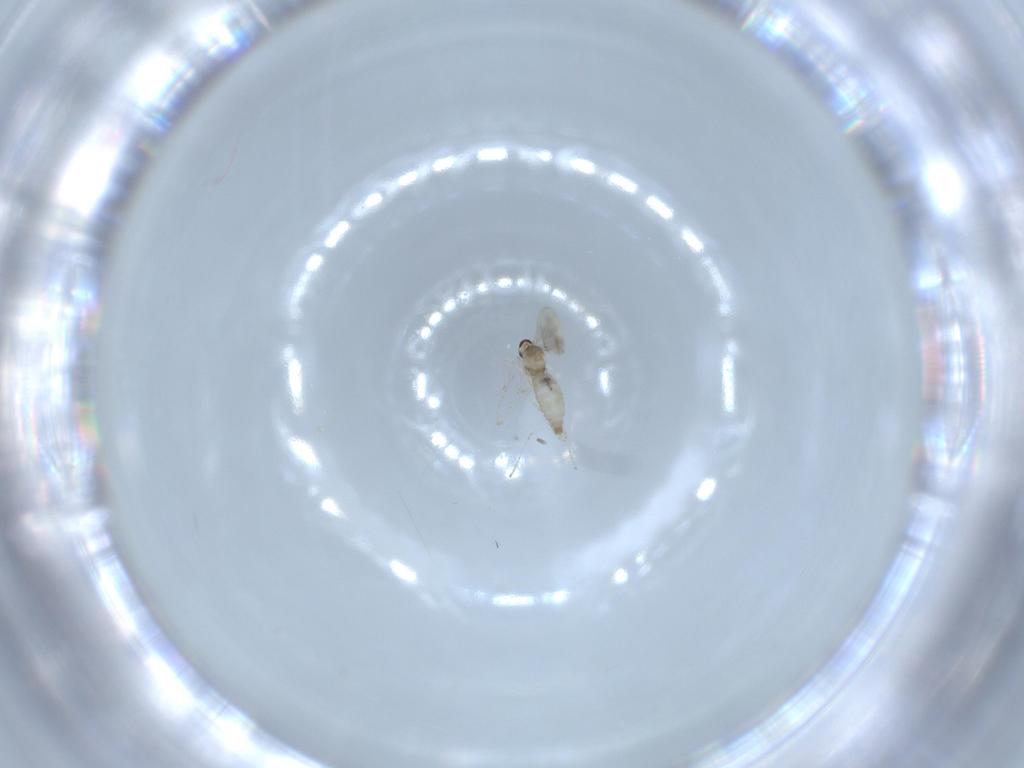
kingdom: Animalia
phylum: Arthropoda
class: Insecta
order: Diptera
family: Cecidomyiidae
